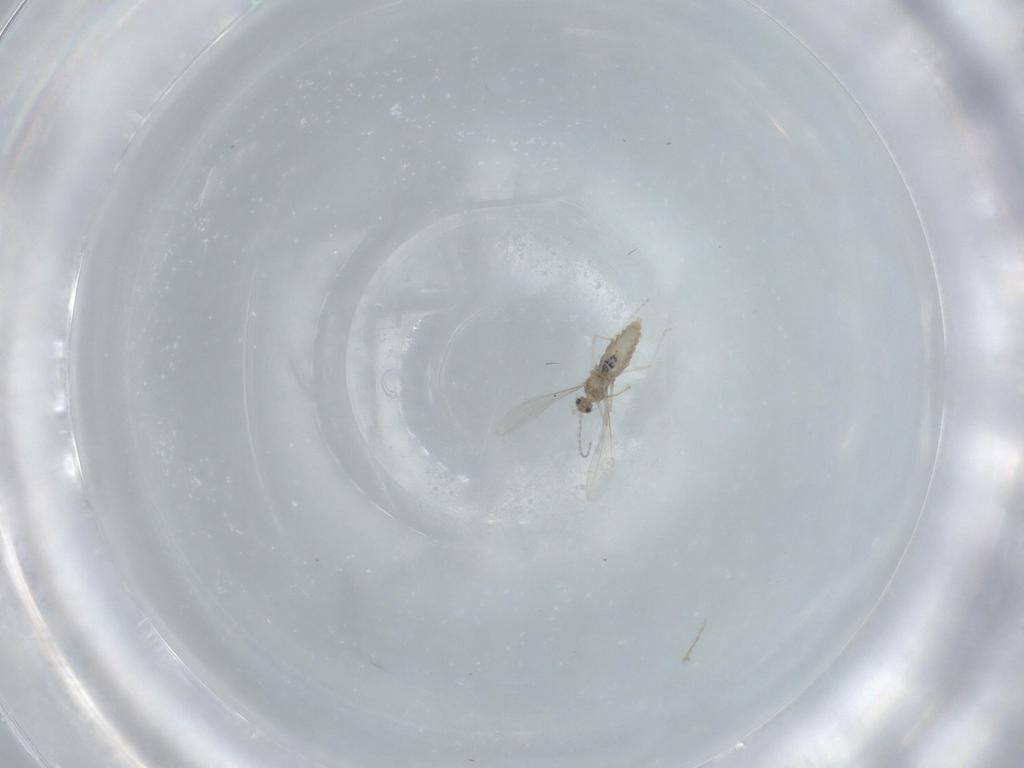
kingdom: Animalia
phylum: Arthropoda
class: Insecta
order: Diptera
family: Cecidomyiidae
